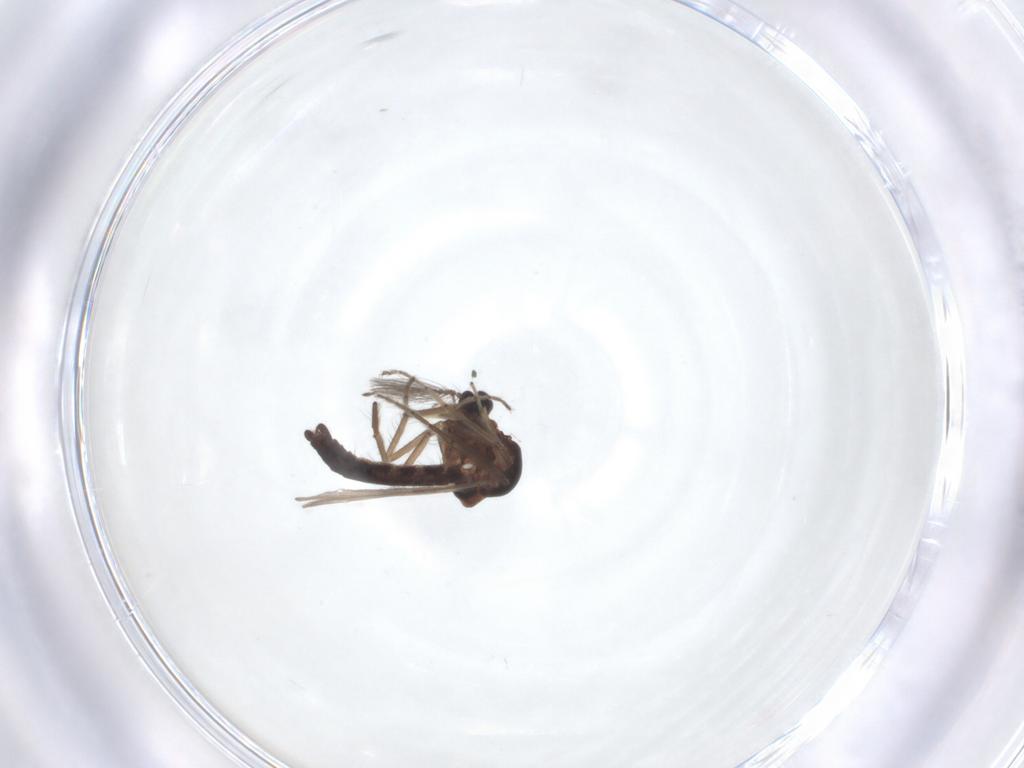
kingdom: Animalia
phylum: Arthropoda
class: Insecta
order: Diptera
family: Ceratopogonidae
